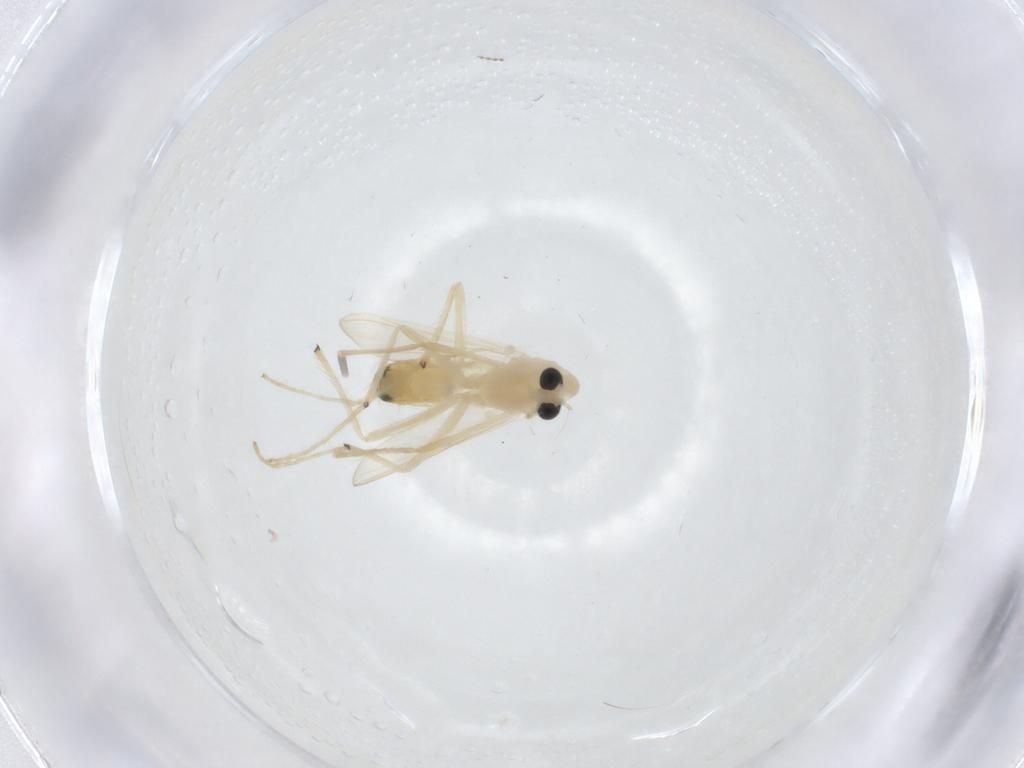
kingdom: Animalia
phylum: Arthropoda
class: Insecta
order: Diptera
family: Chironomidae
